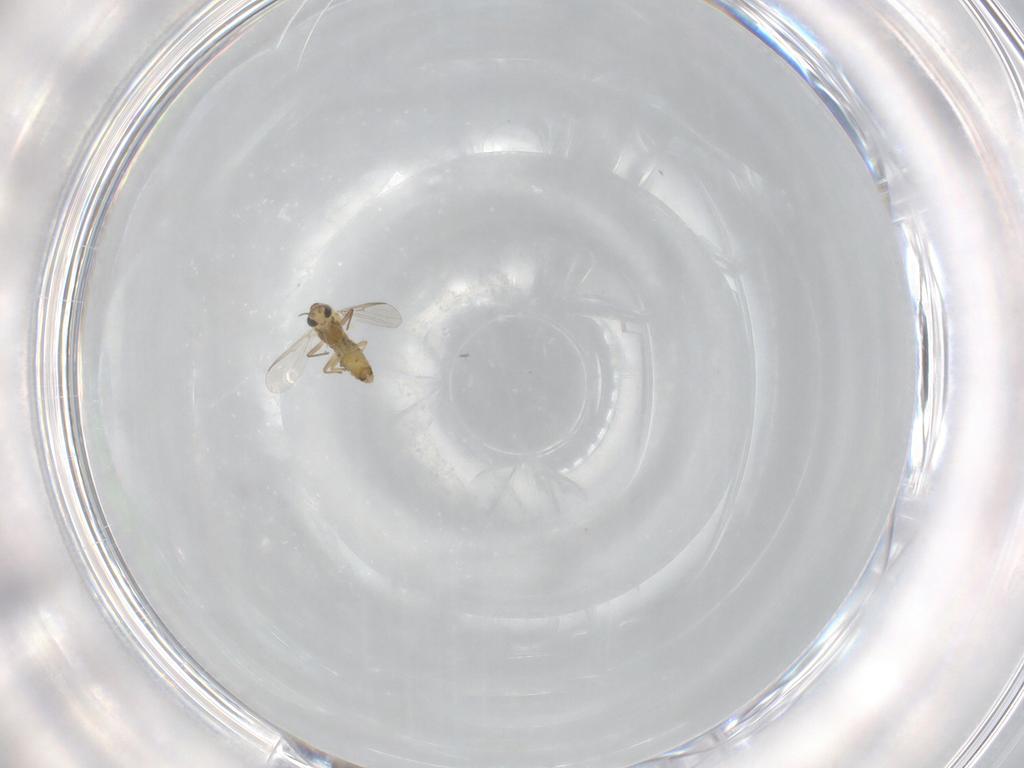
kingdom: Animalia
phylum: Arthropoda
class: Insecta
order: Diptera
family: Chironomidae
